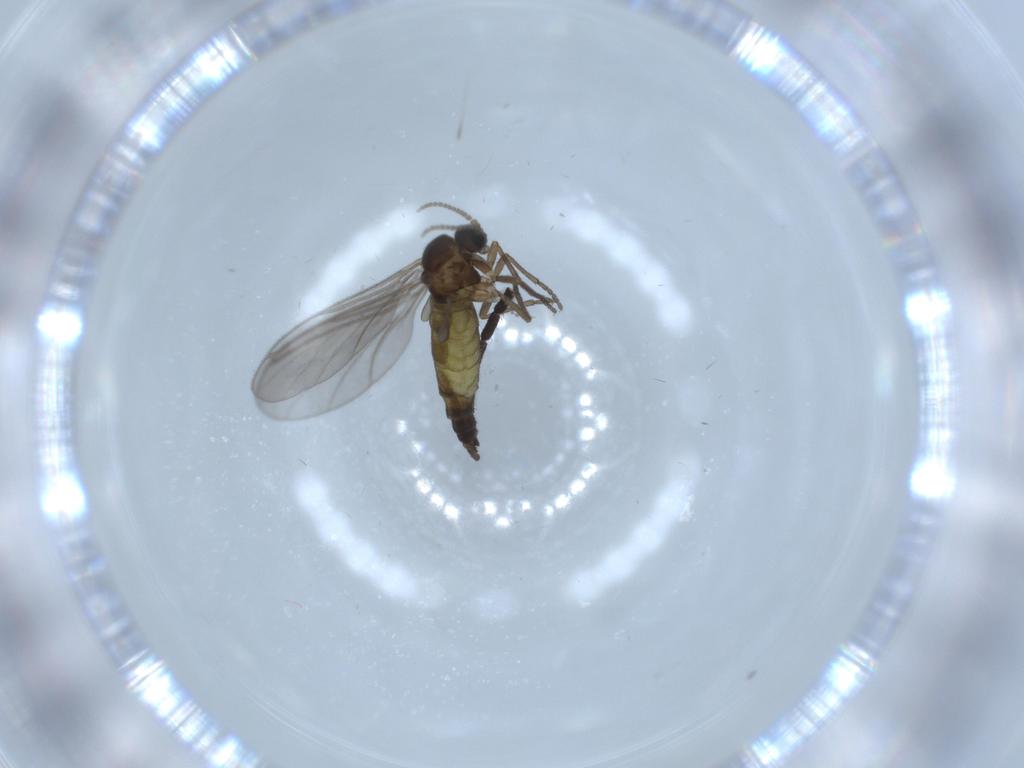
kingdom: Animalia
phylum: Arthropoda
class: Insecta
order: Diptera
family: Sciaridae
